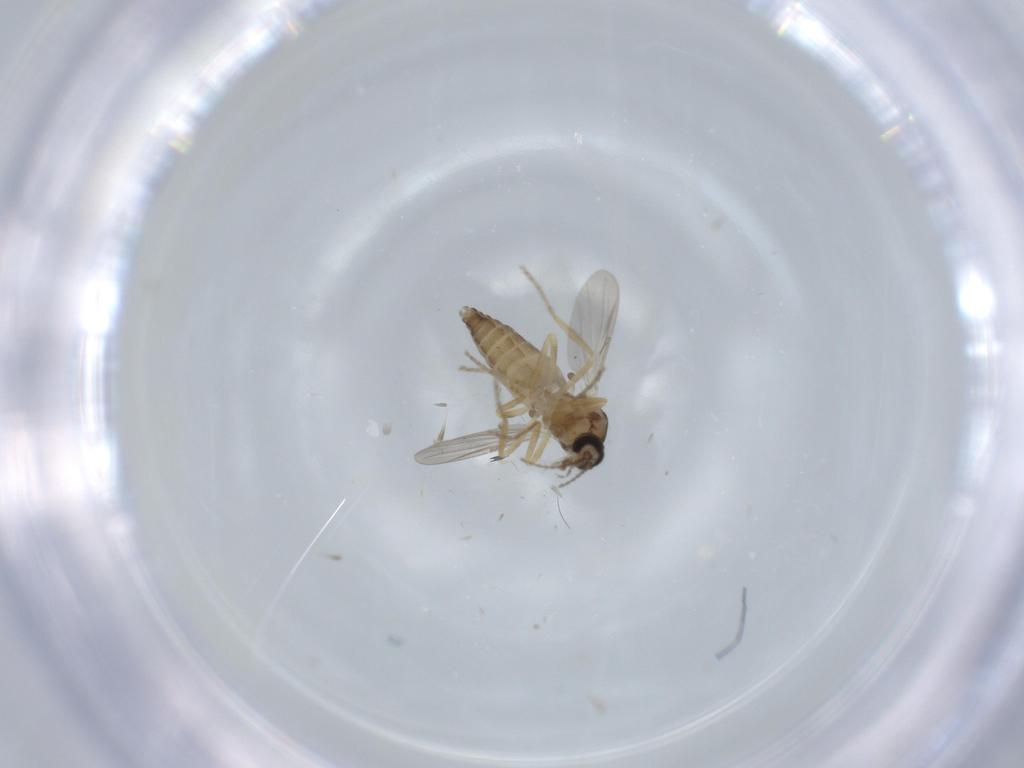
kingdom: Animalia
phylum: Arthropoda
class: Insecta
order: Diptera
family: Ceratopogonidae
